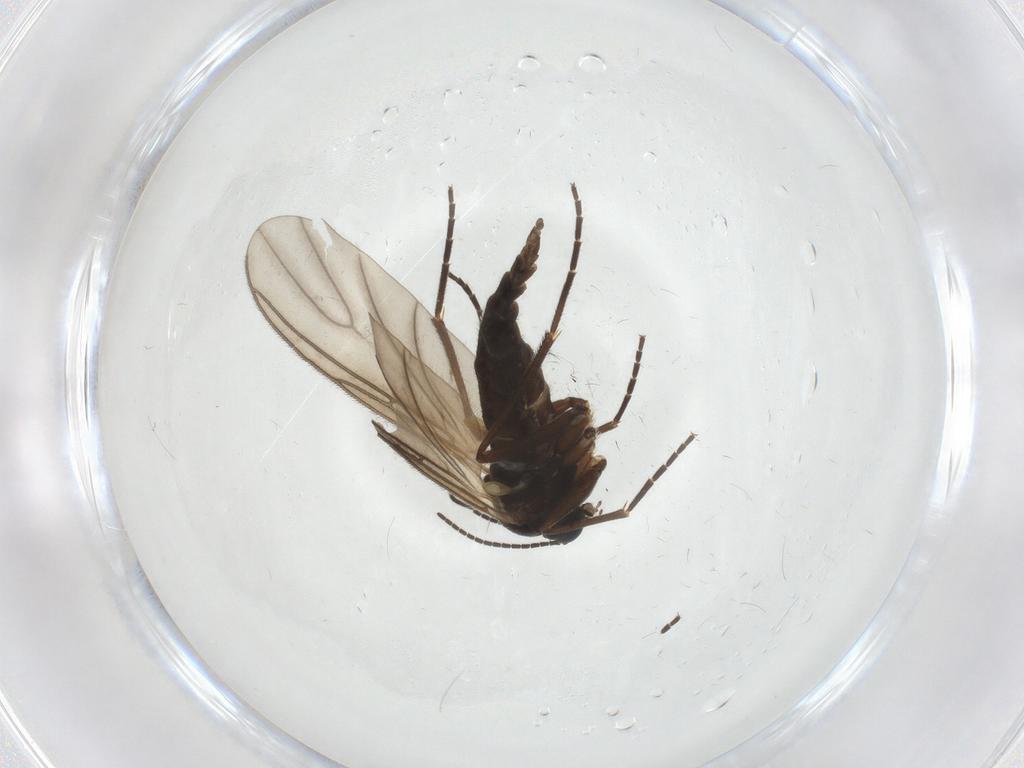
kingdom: Animalia
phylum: Arthropoda
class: Insecta
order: Diptera
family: Sciaridae
